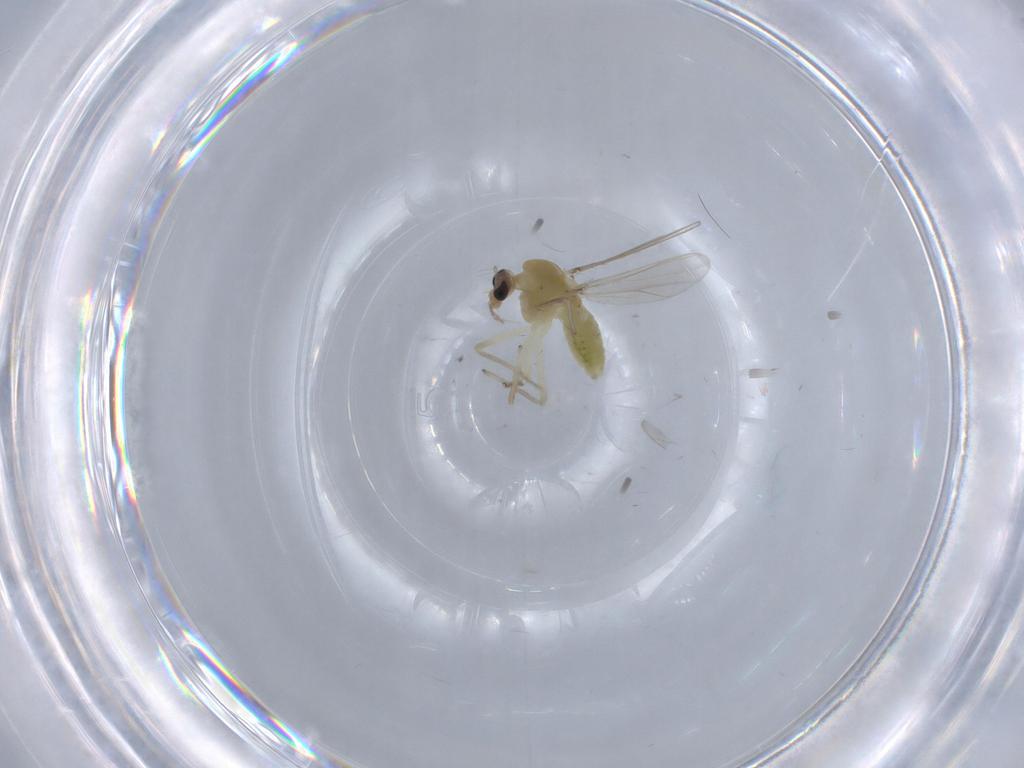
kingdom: Animalia
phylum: Arthropoda
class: Insecta
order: Diptera
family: Chironomidae
